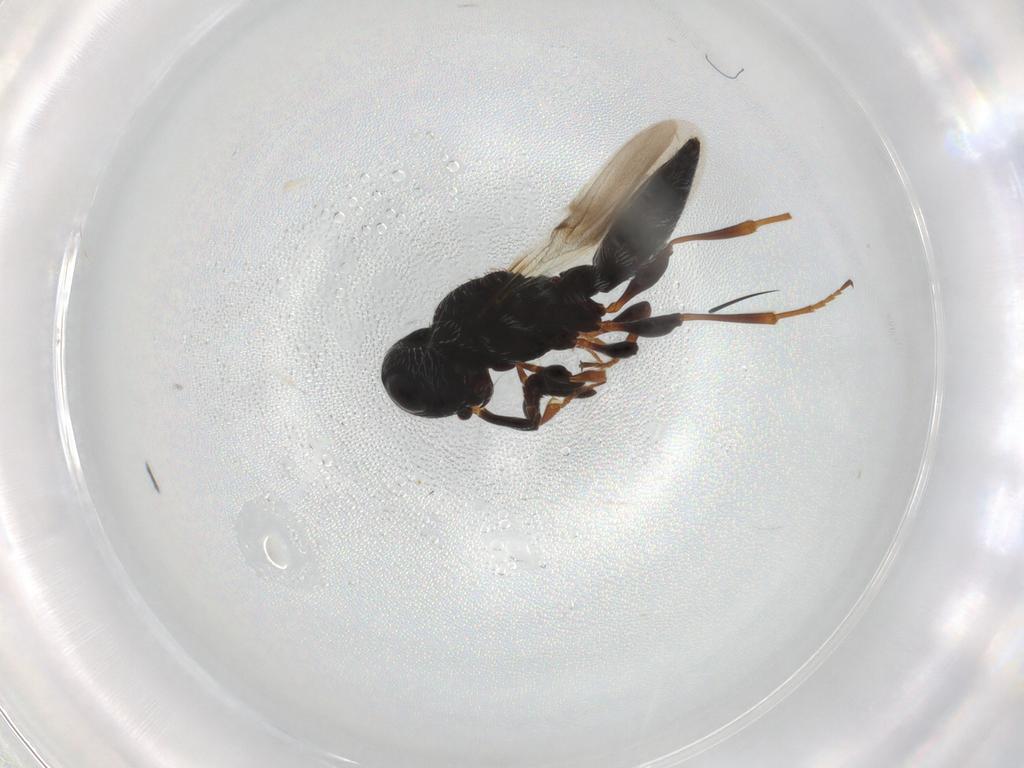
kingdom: Animalia
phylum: Arthropoda
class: Insecta
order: Hymenoptera
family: Scelionidae
